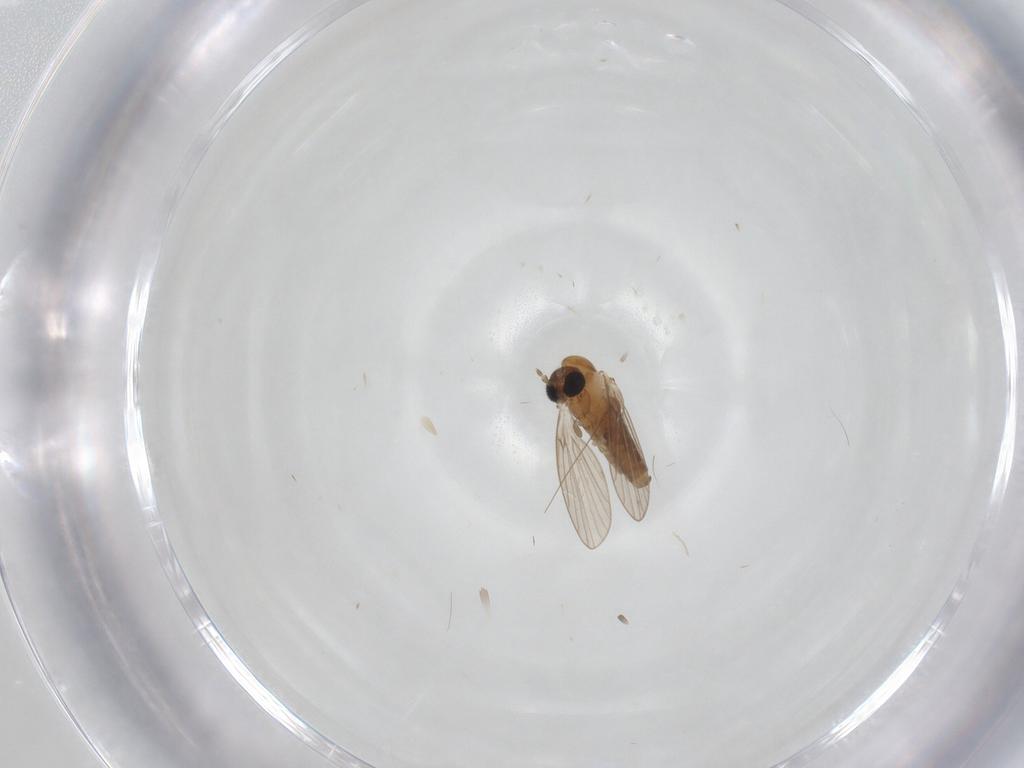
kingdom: Animalia
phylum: Arthropoda
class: Insecta
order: Diptera
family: Cecidomyiidae
